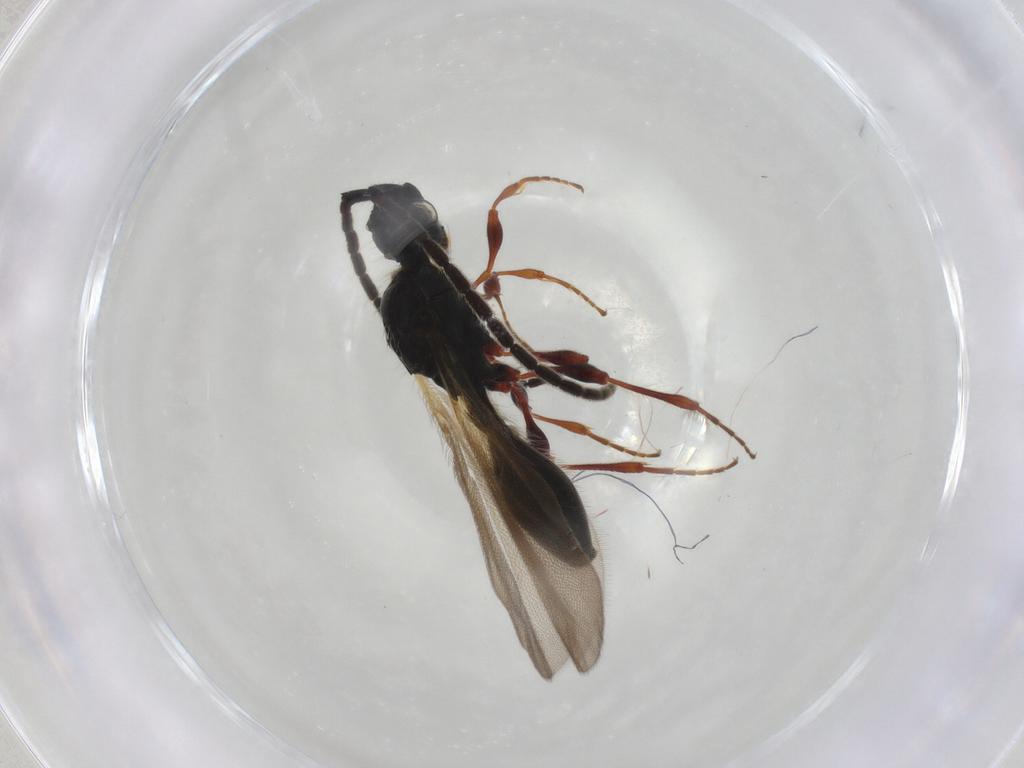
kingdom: Animalia
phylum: Arthropoda
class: Insecta
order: Hymenoptera
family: Diapriidae
